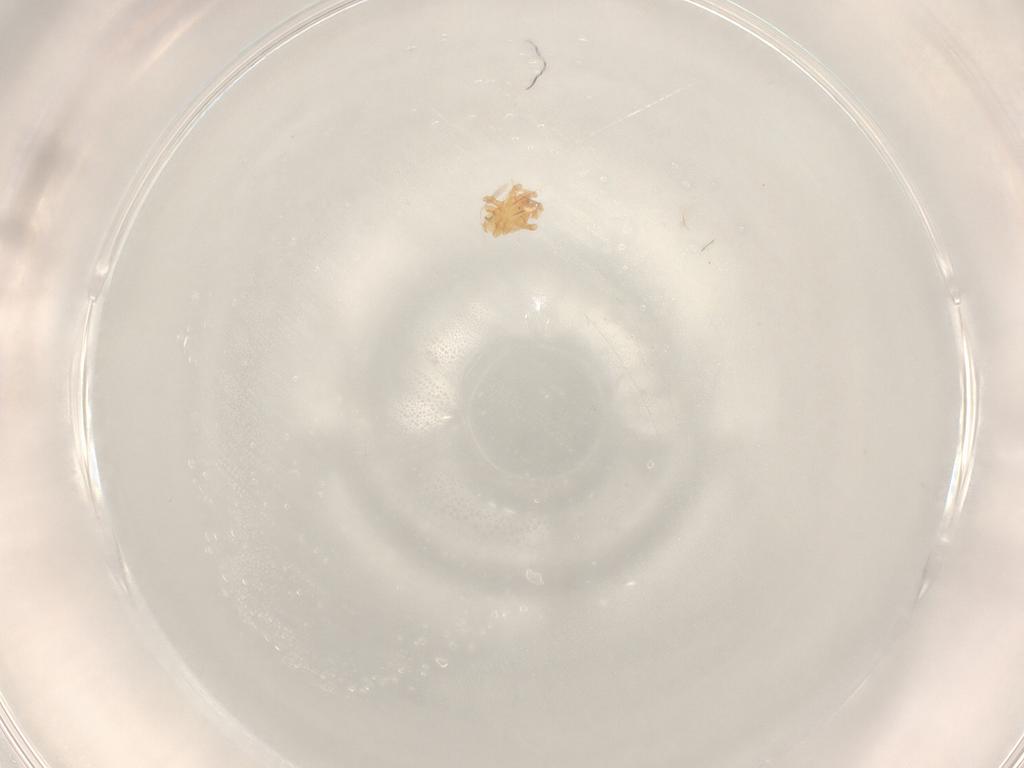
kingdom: Animalia
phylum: Arthropoda
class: Arachnida
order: Mesostigmata
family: Parasitidae
